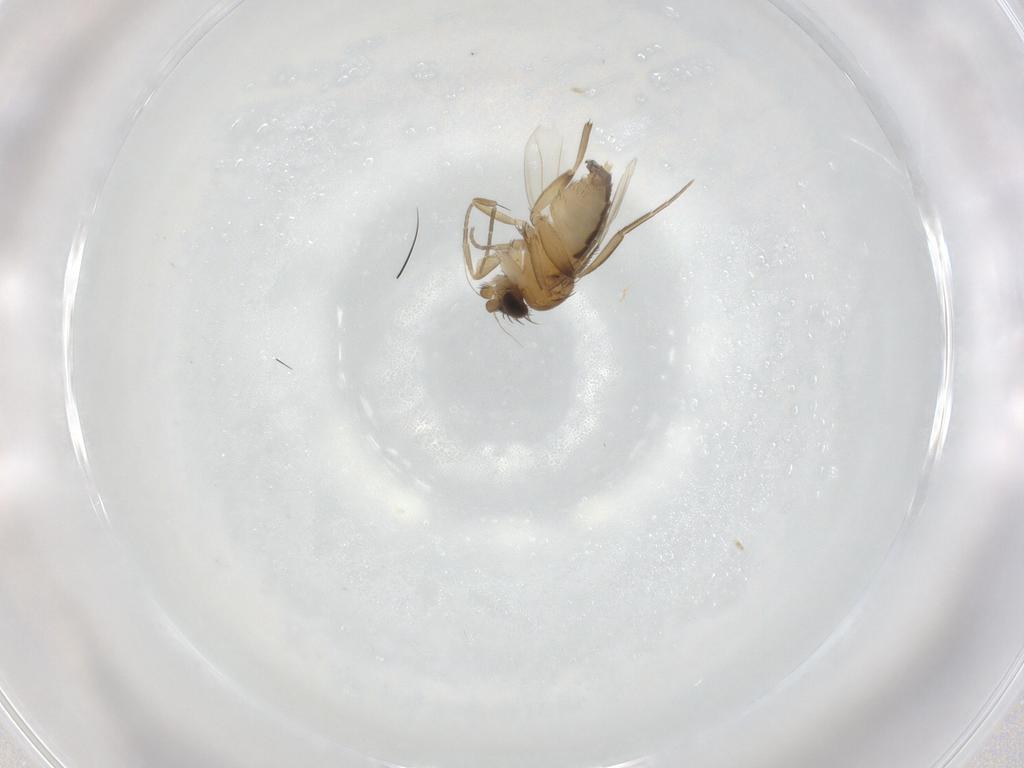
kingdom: Animalia
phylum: Arthropoda
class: Insecta
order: Diptera
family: Phoridae
